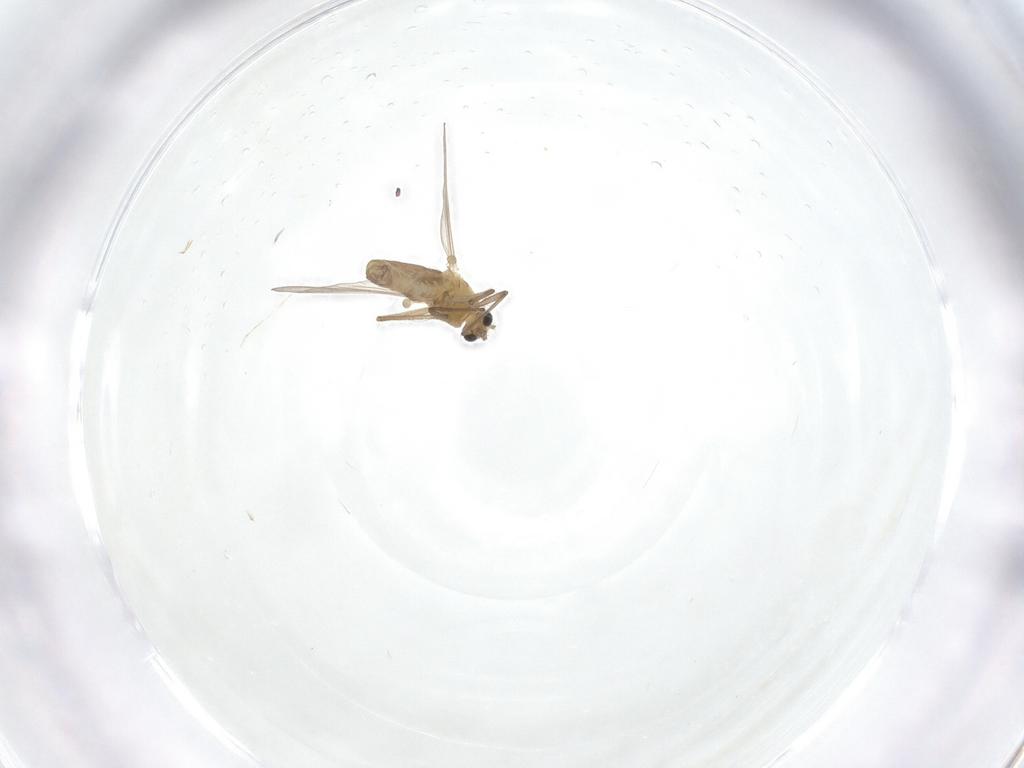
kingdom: Animalia
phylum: Arthropoda
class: Insecta
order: Diptera
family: Chironomidae
